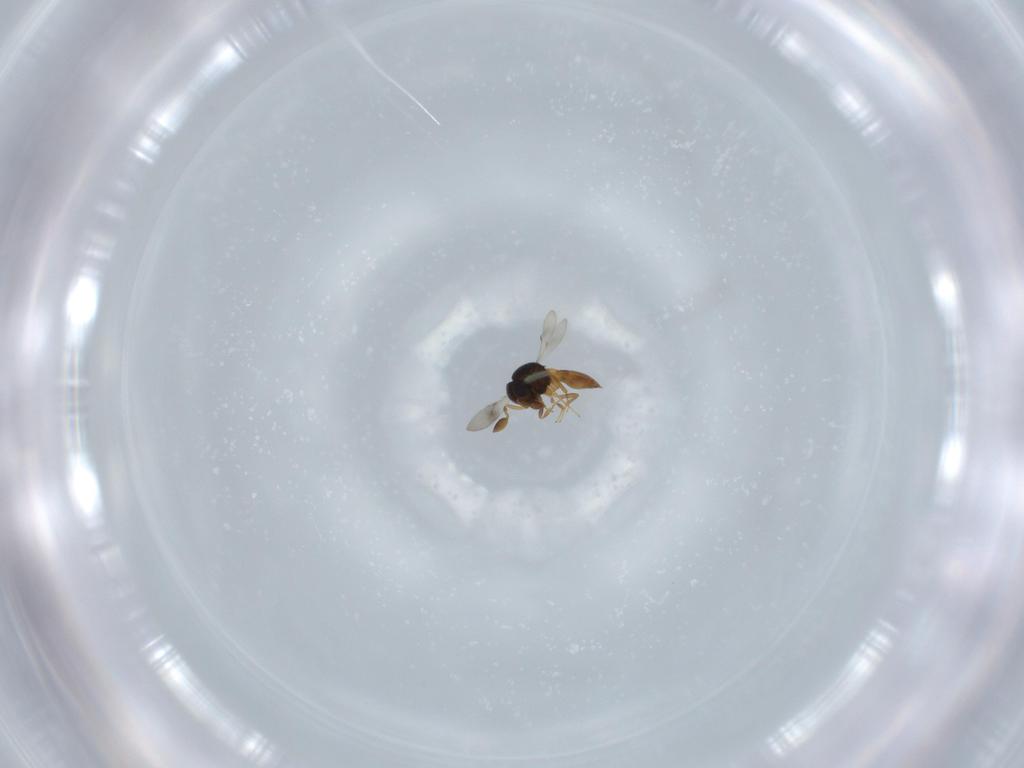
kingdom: Animalia
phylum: Arthropoda
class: Insecta
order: Hymenoptera
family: Scelionidae
